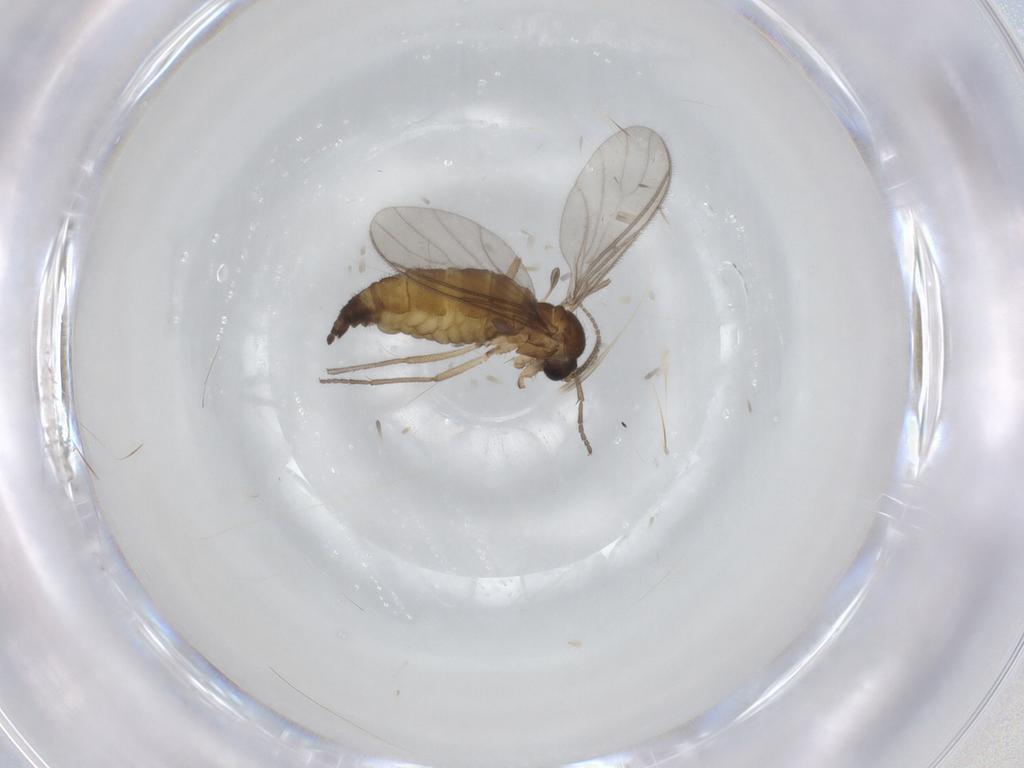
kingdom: Animalia
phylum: Arthropoda
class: Insecta
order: Diptera
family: Sciaridae
